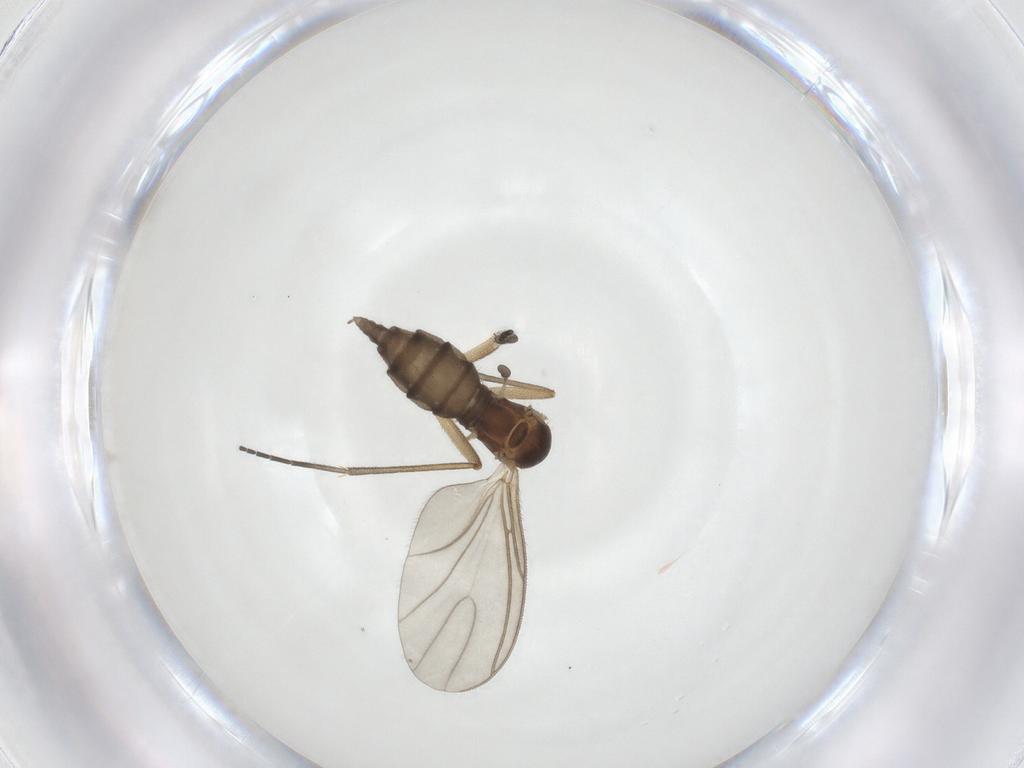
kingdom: Animalia
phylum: Arthropoda
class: Insecta
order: Diptera
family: Sciaridae
